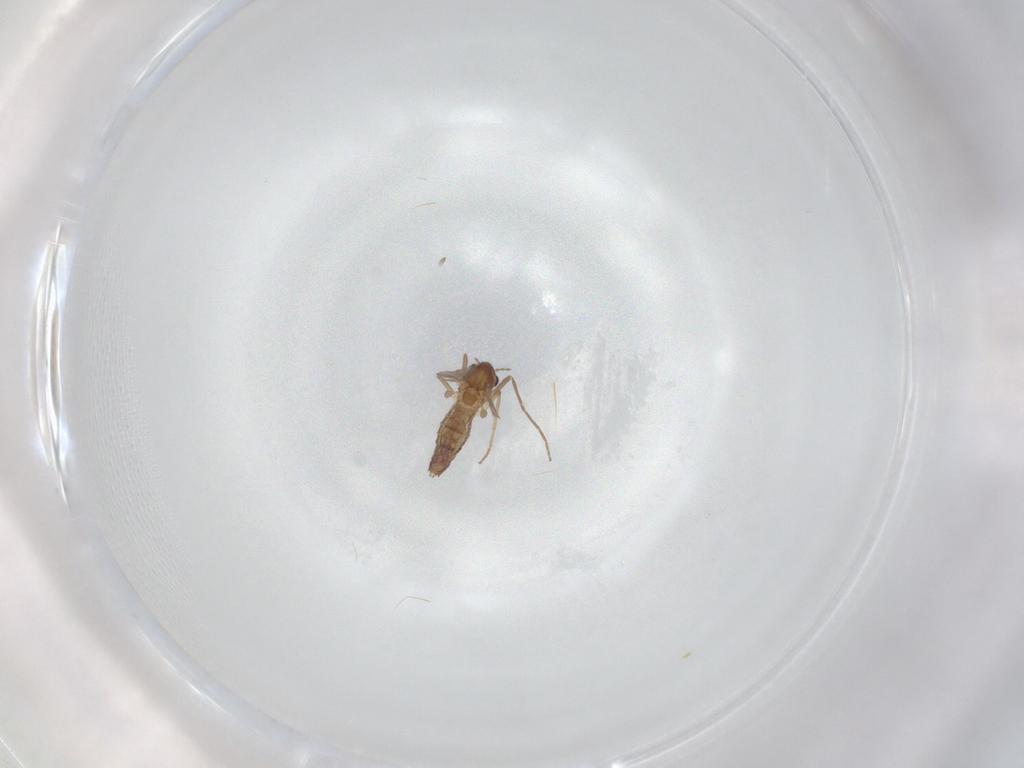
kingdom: Animalia
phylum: Arthropoda
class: Insecta
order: Diptera
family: Chironomidae
